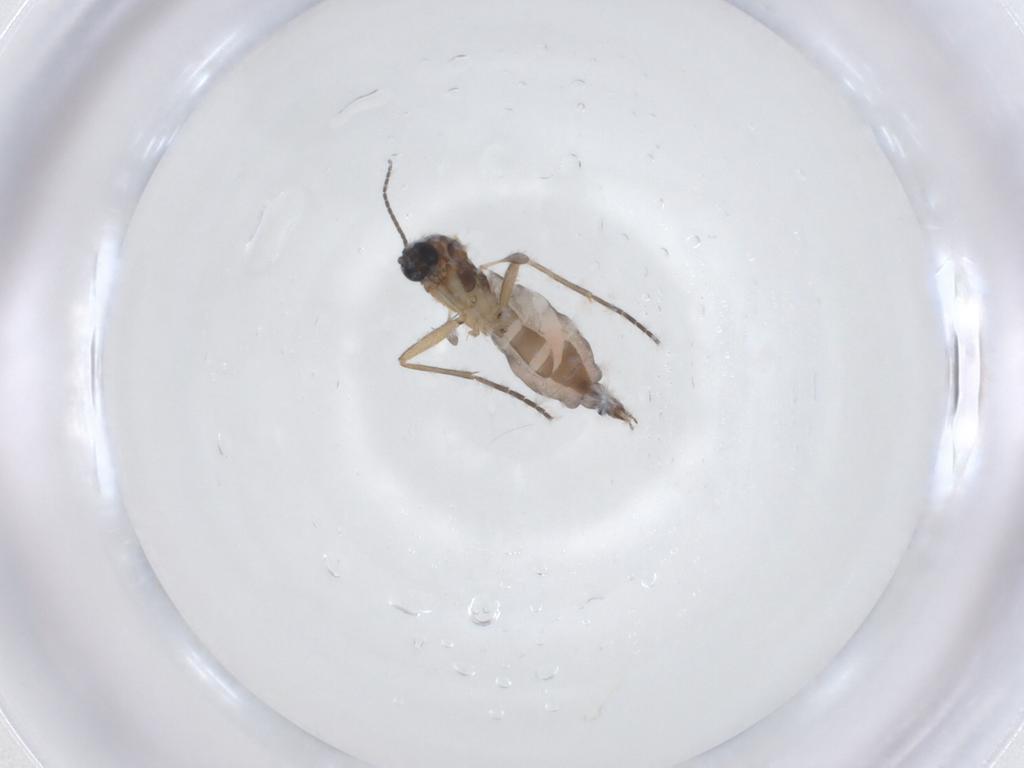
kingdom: Animalia
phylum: Arthropoda
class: Insecta
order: Diptera
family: Sciaridae
